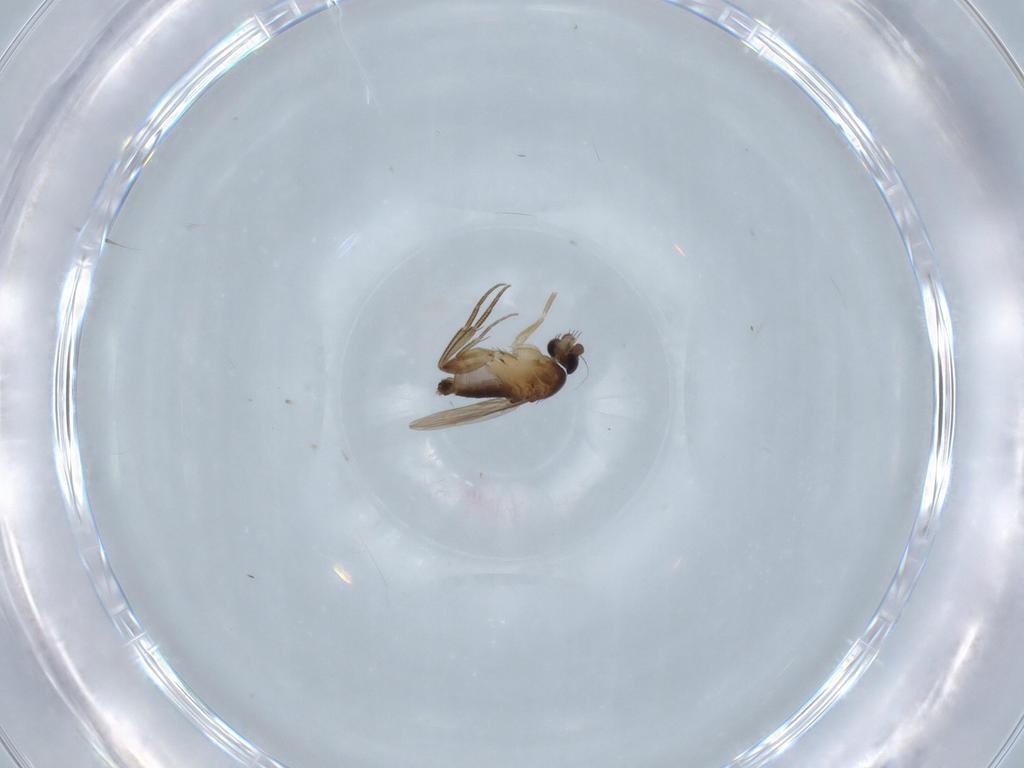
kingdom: Animalia
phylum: Arthropoda
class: Insecta
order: Diptera
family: Phoridae
